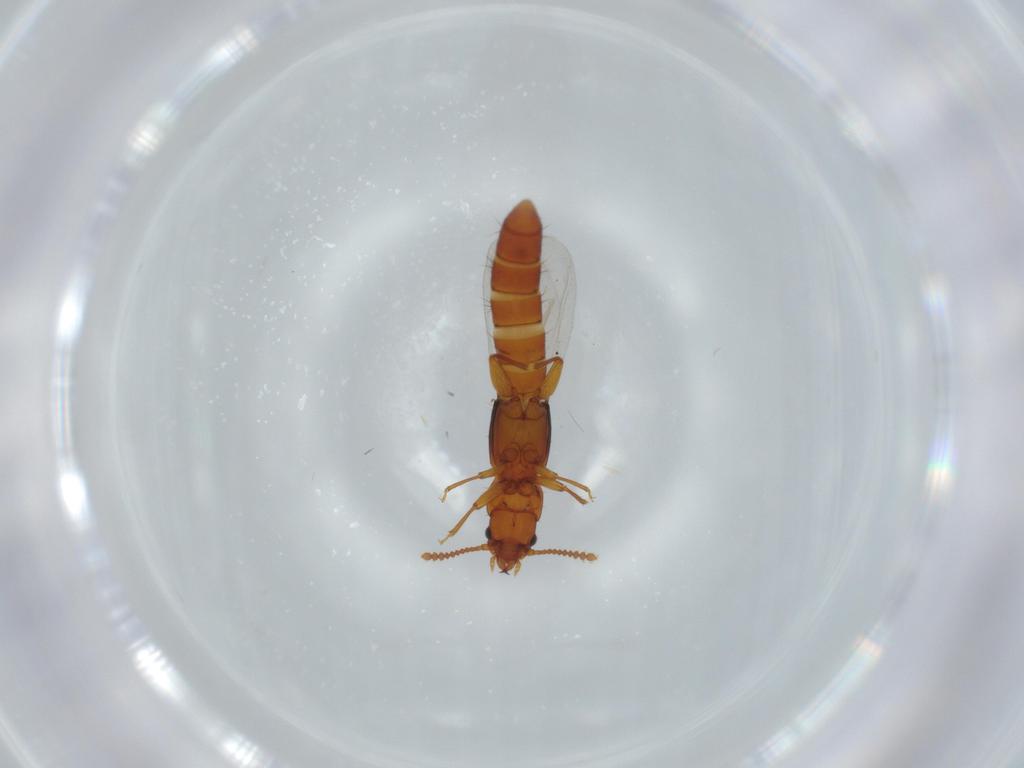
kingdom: Animalia
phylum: Arthropoda
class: Insecta
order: Coleoptera
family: Staphylinidae
